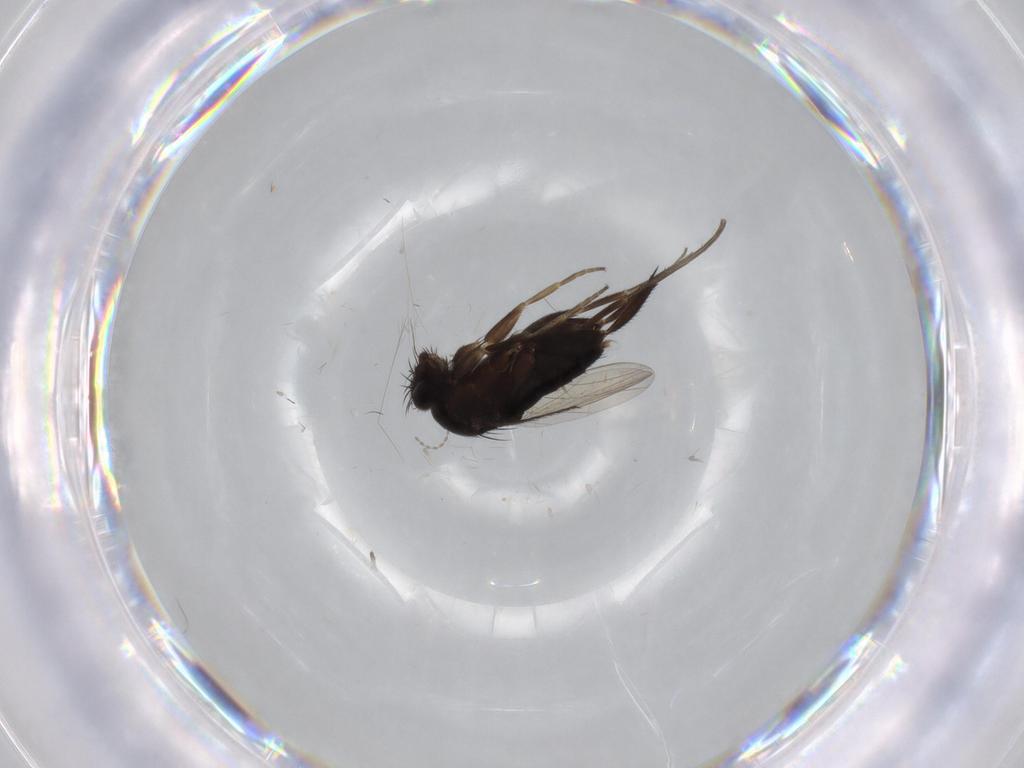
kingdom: Animalia
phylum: Arthropoda
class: Insecta
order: Diptera
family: Phoridae
